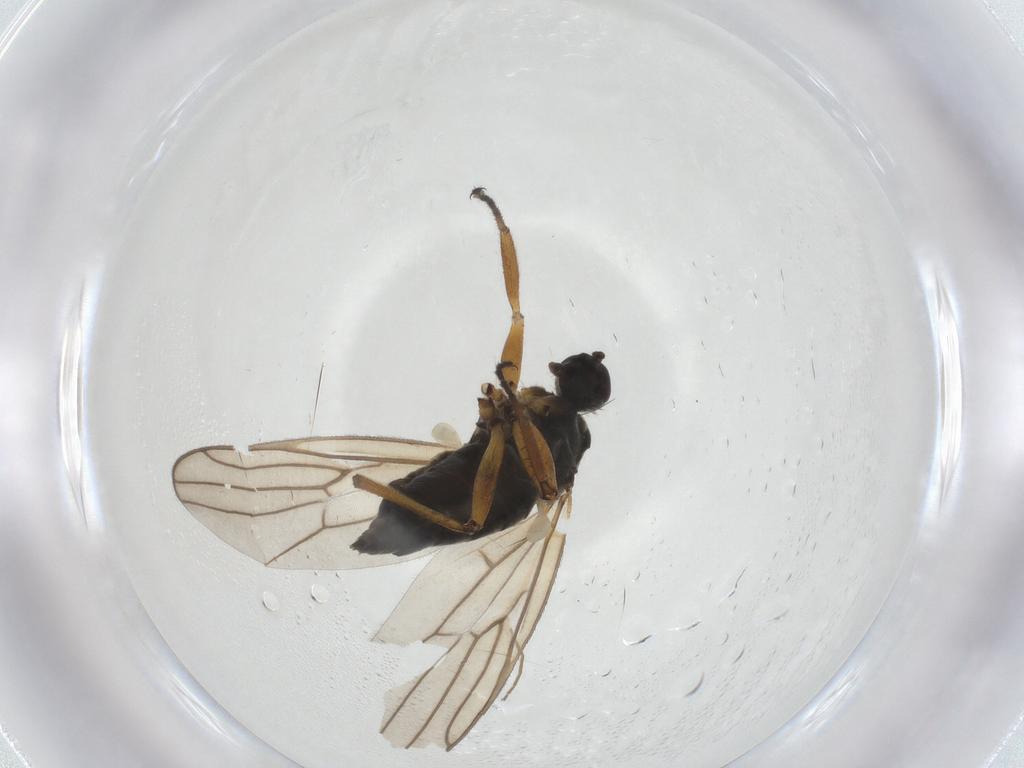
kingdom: Animalia
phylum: Arthropoda
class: Insecta
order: Diptera
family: Hybotidae
